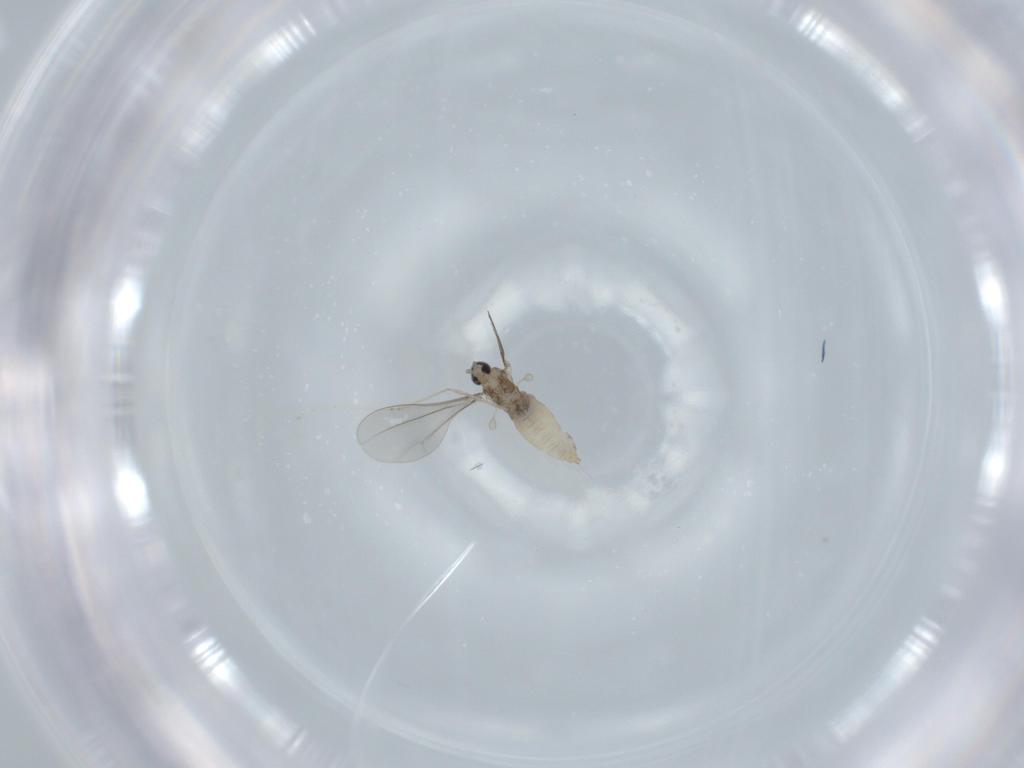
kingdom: Animalia
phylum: Arthropoda
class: Insecta
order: Diptera
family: Cecidomyiidae
